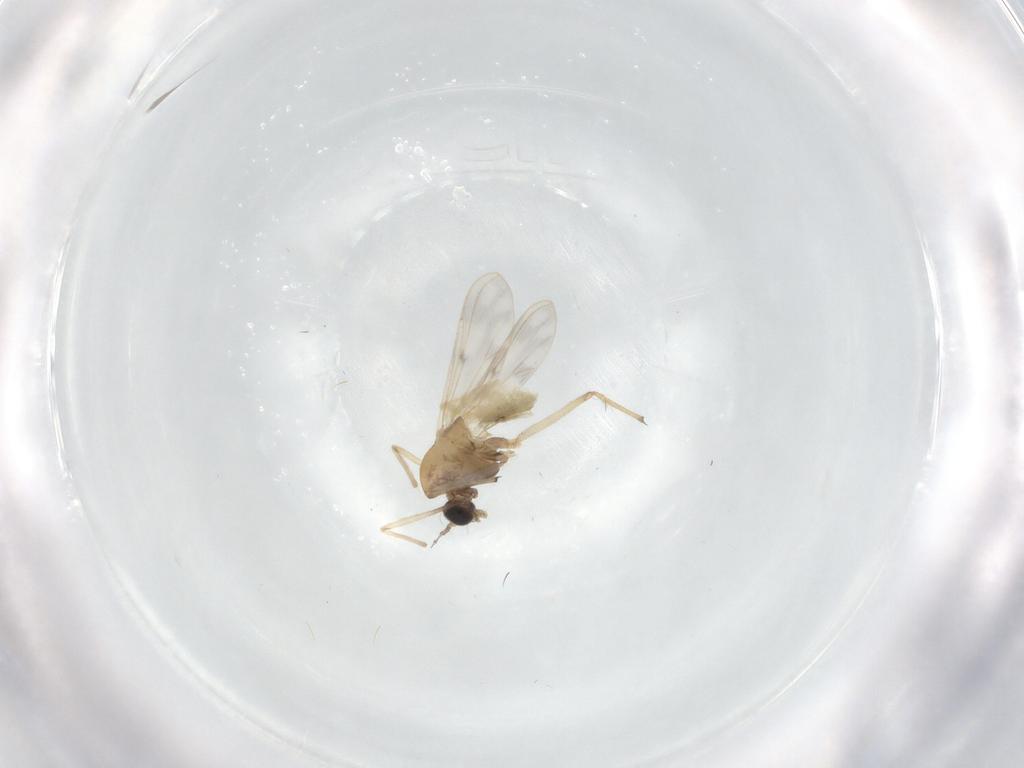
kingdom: Animalia
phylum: Arthropoda
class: Insecta
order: Diptera
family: Chironomidae
